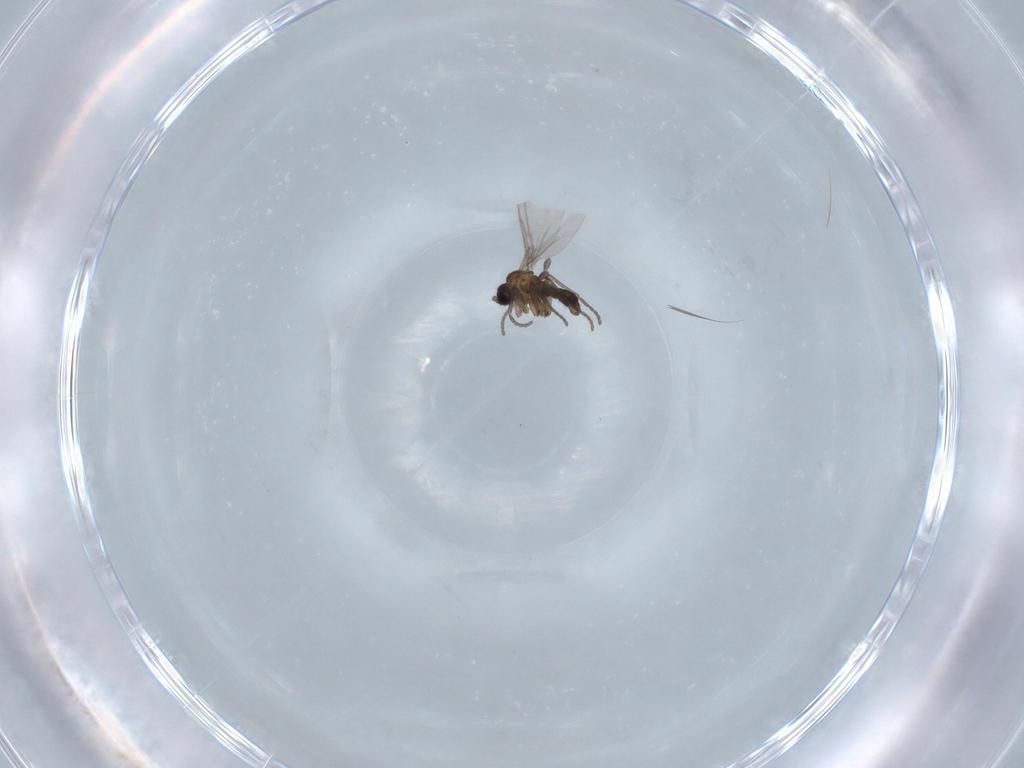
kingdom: Animalia
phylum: Arthropoda
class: Insecta
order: Diptera
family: Sciaridae
